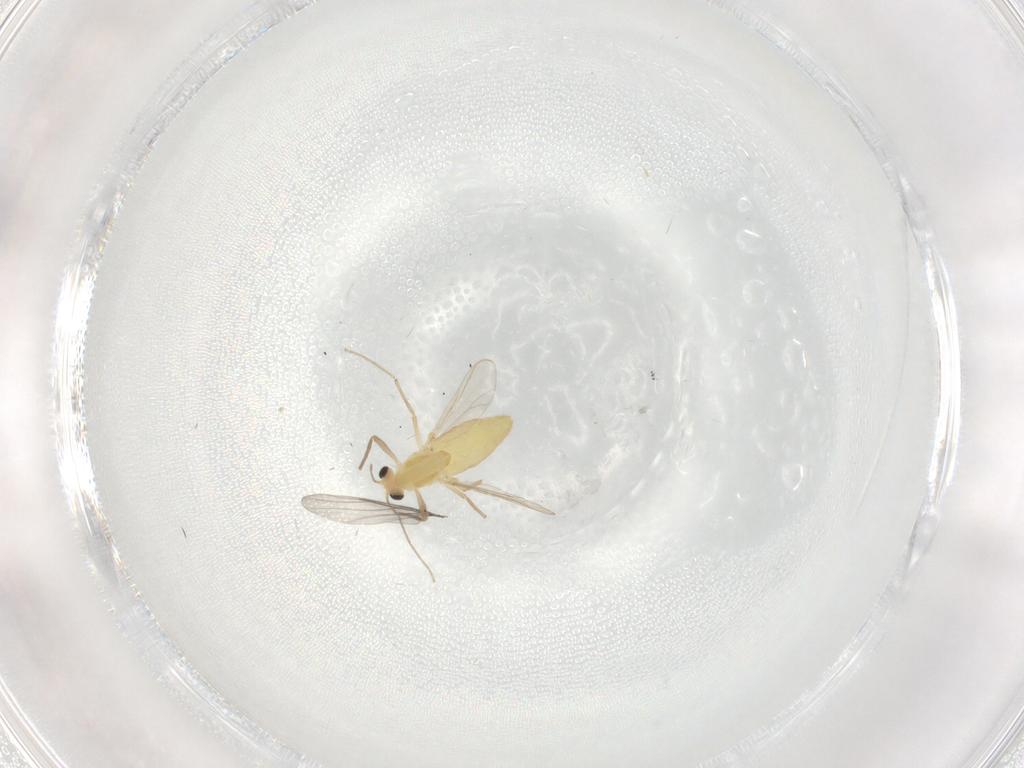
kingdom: Animalia
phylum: Arthropoda
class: Insecta
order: Diptera
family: Chironomidae
